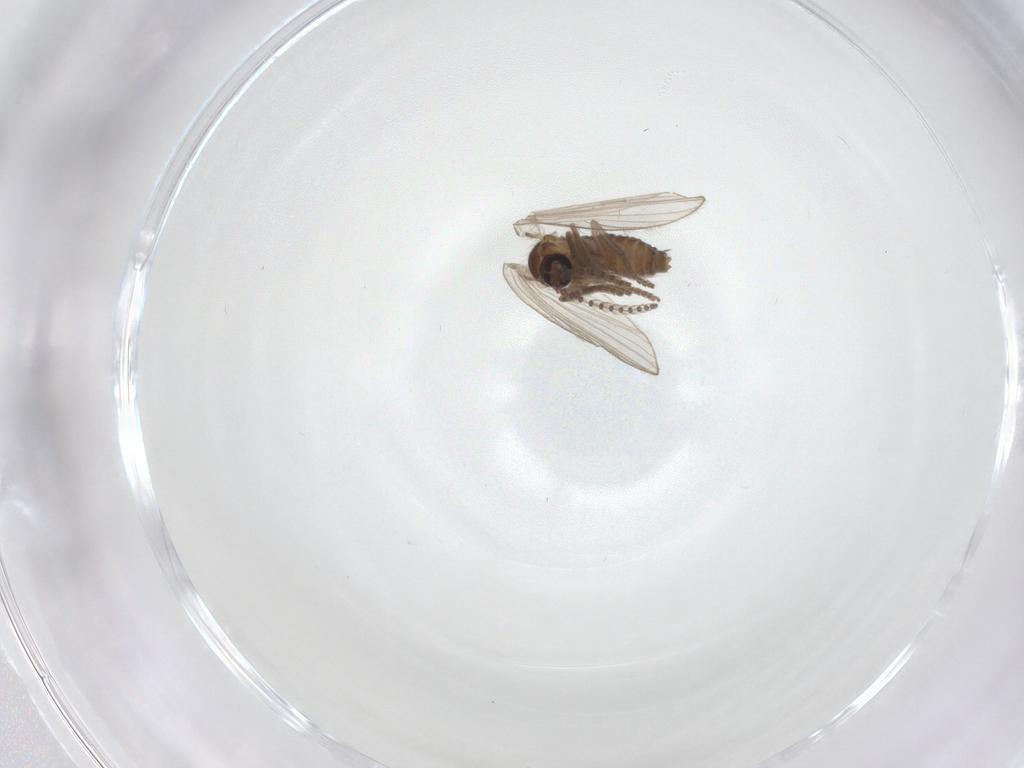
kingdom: Animalia
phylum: Arthropoda
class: Insecta
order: Diptera
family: Psychodidae
